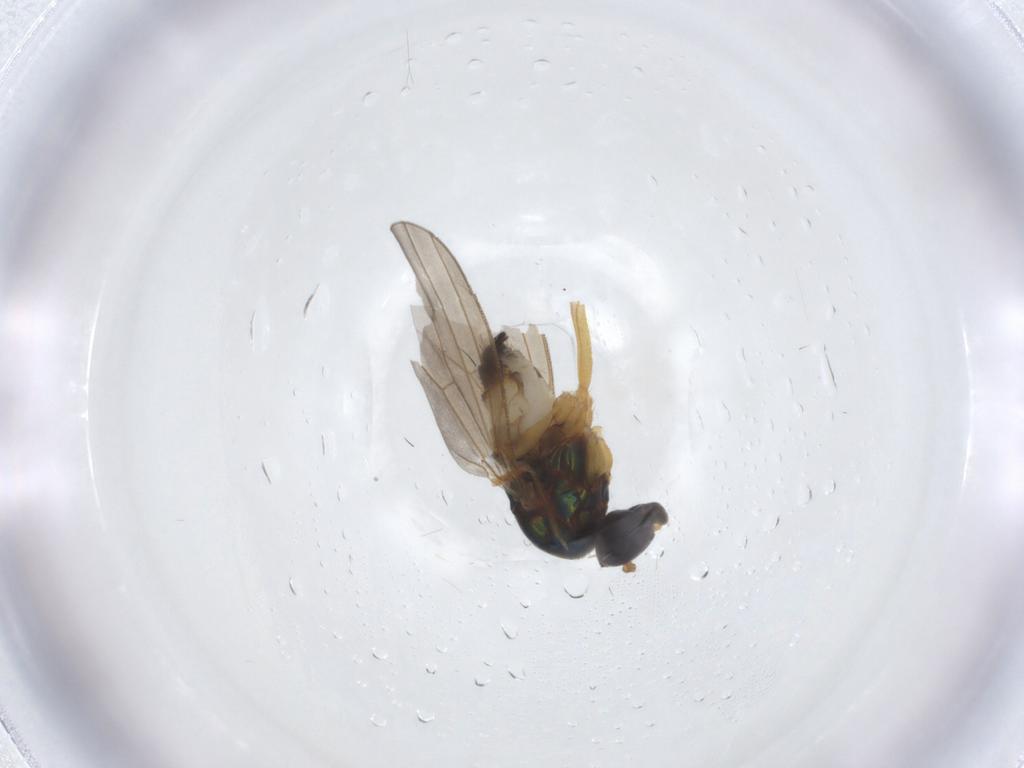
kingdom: Animalia
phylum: Arthropoda
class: Insecta
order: Diptera
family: Dolichopodidae
